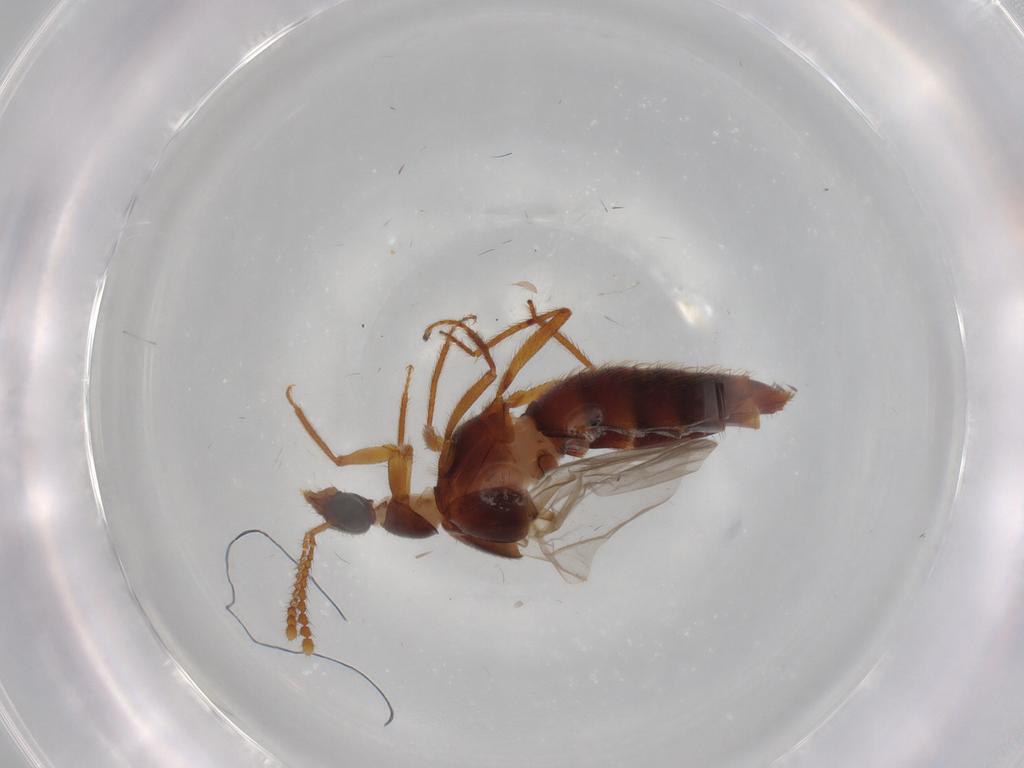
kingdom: Animalia
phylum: Arthropoda
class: Insecta
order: Coleoptera
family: Staphylinidae
